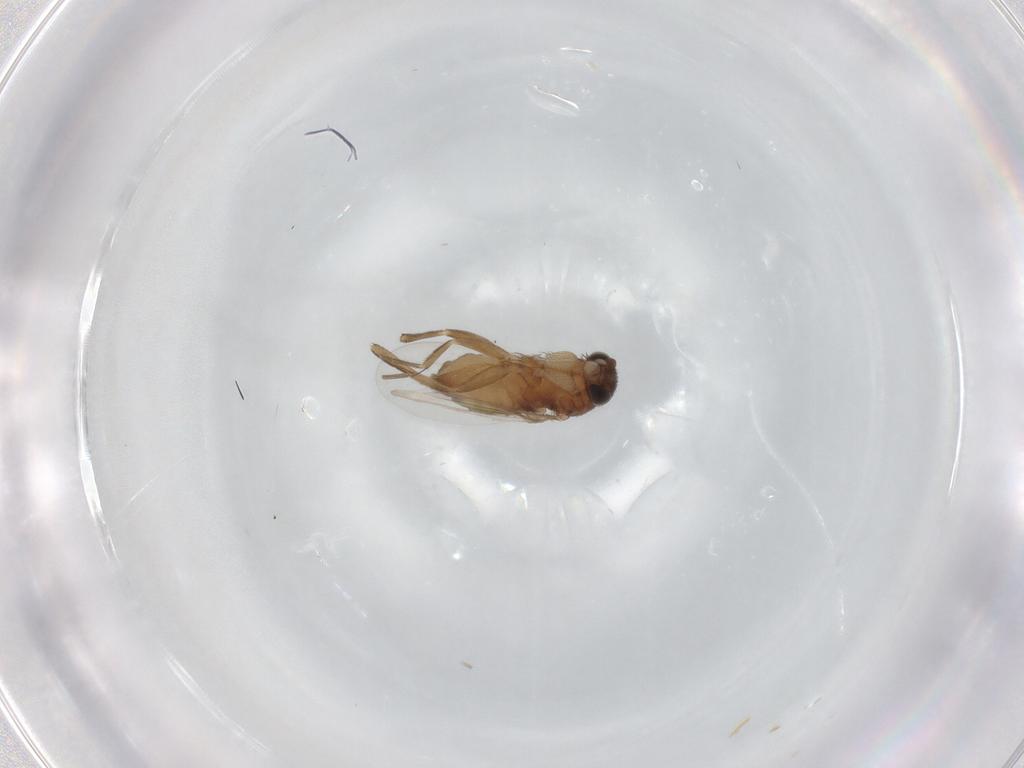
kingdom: Animalia
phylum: Arthropoda
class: Insecta
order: Diptera
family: Phoridae
